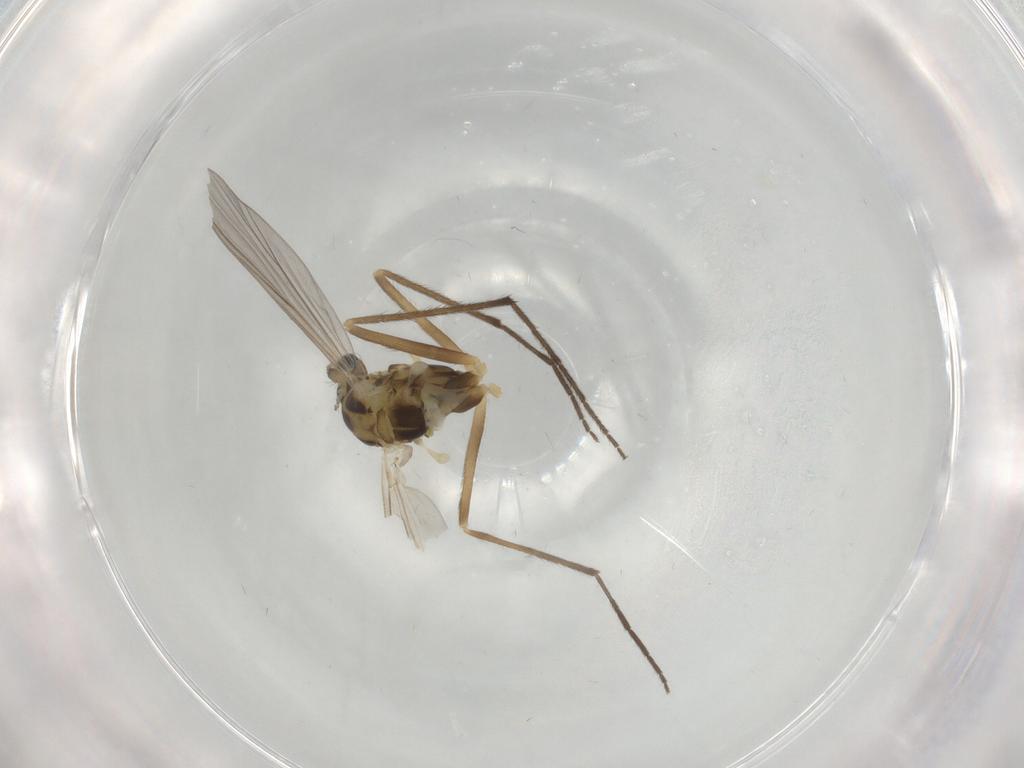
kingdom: Animalia
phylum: Arthropoda
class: Insecta
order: Diptera
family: Chironomidae
